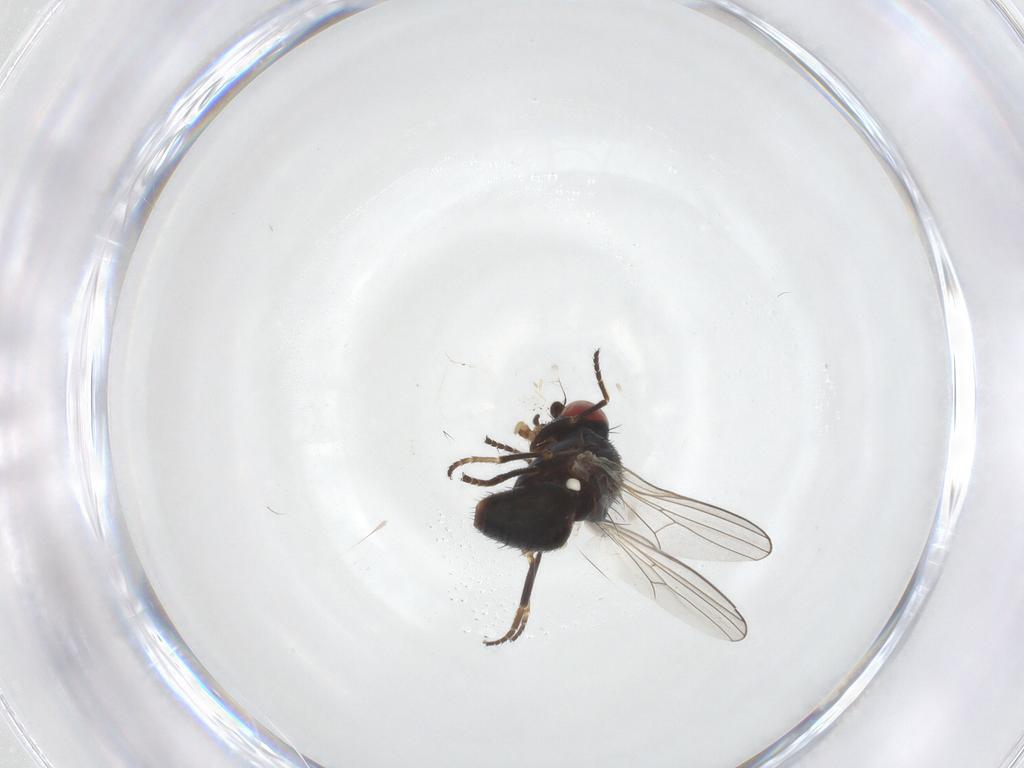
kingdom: Animalia
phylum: Arthropoda
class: Insecta
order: Diptera
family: Chamaemyiidae
